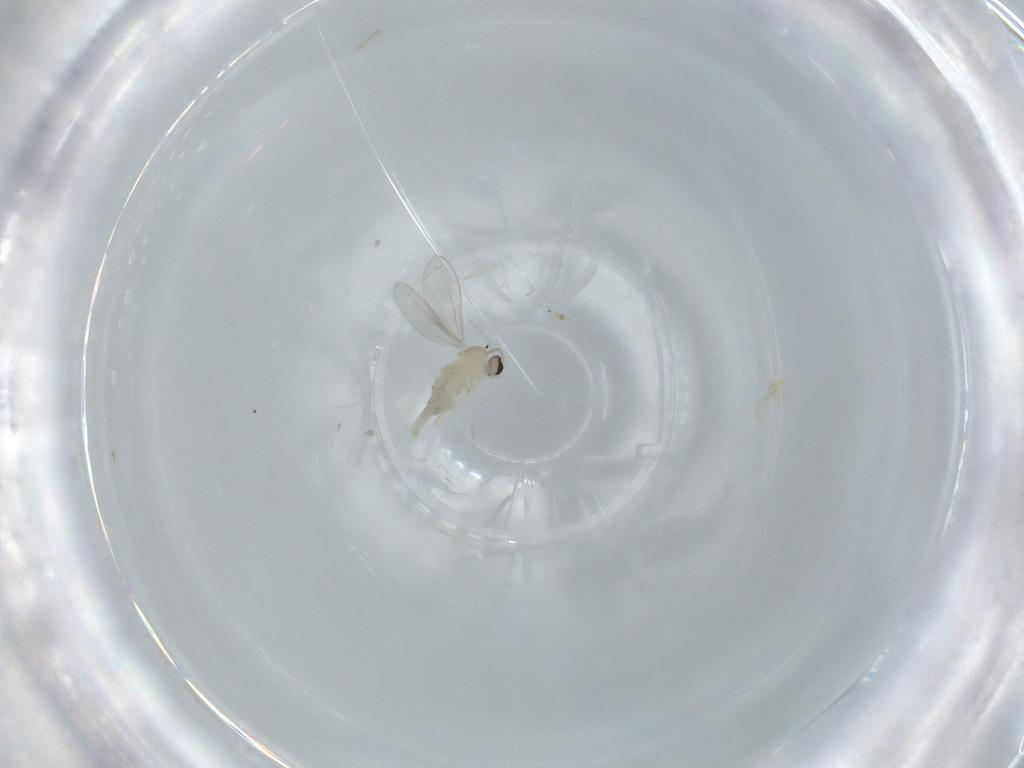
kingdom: Animalia
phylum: Arthropoda
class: Insecta
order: Diptera
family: Cecidomyiidae
